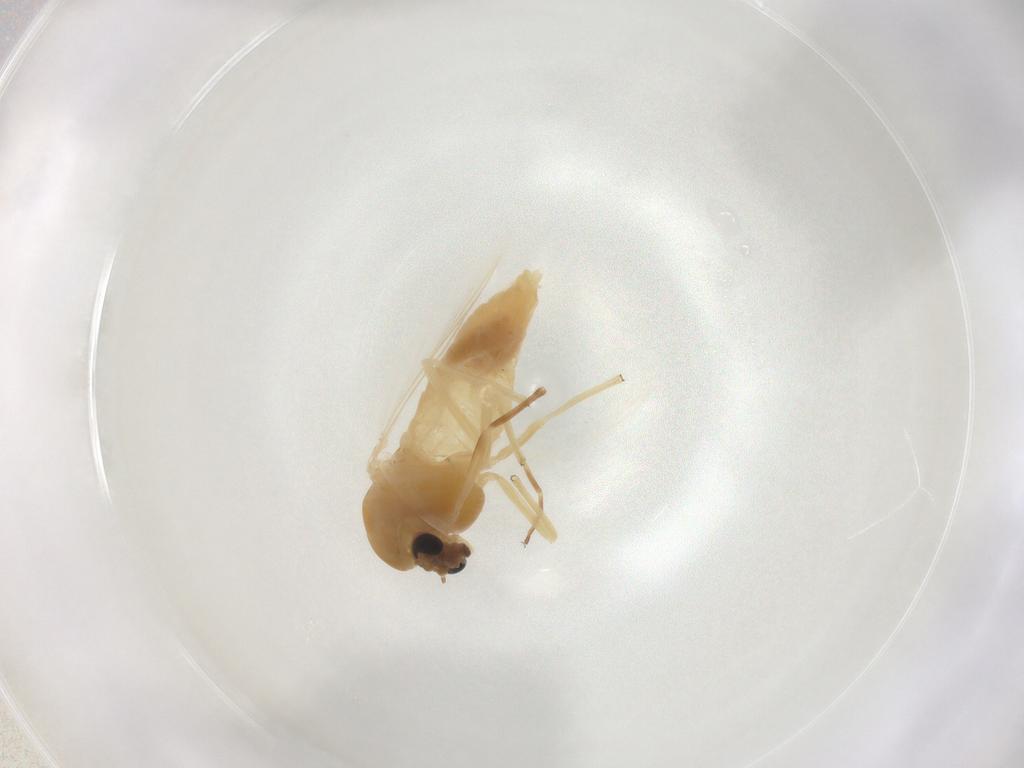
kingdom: Animalia
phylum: Arthropoda
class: Insecta
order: Diptera
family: Chironomidae
